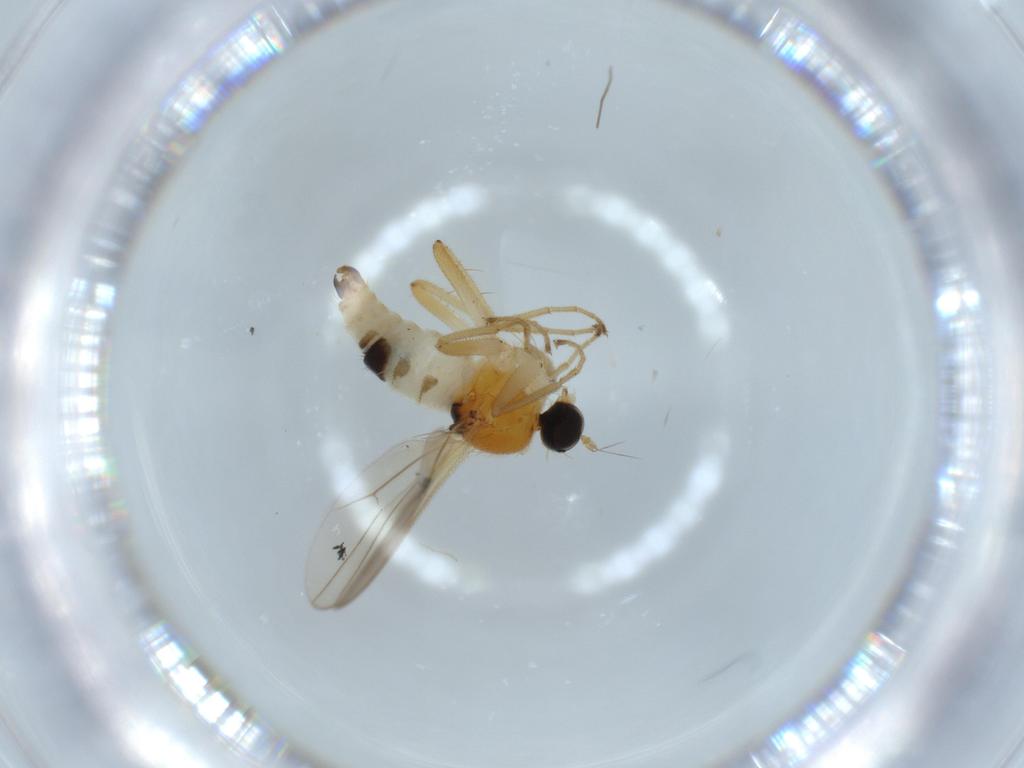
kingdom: Animalia
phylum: Arthropoda
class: Insecta
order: Diptera
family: Hybotidae
